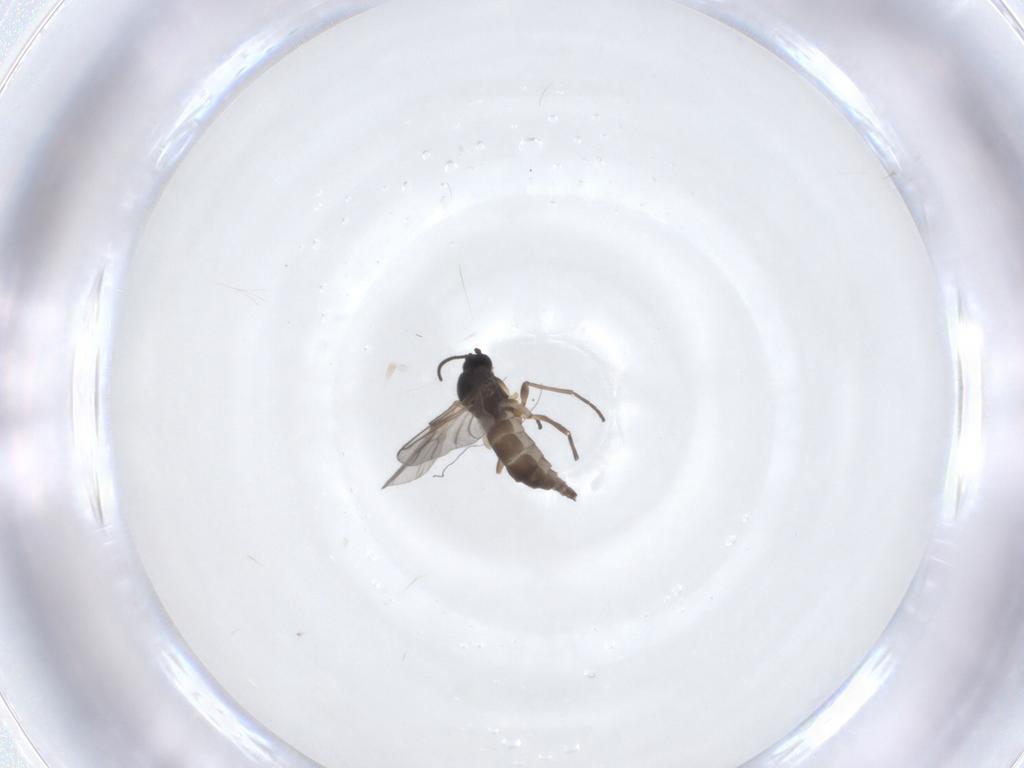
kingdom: Animalia
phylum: Arthropoda
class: Insecta
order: Diptera
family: Sciaridae
